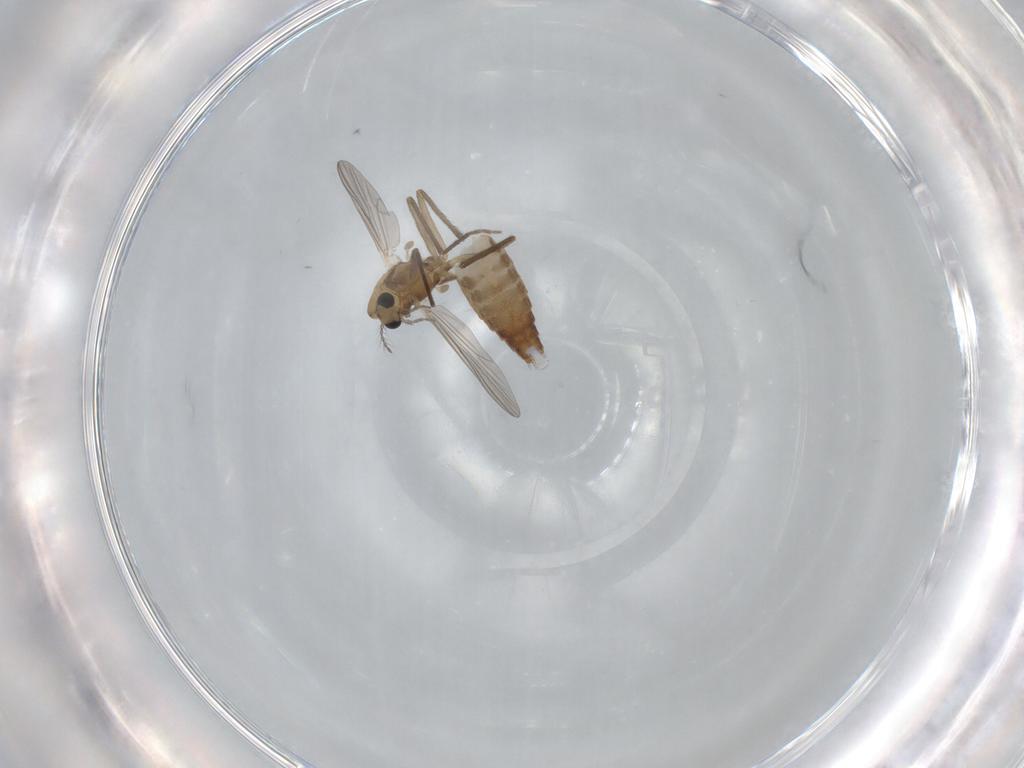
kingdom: Animalia
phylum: Arthropoda
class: Insecta
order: Diptera
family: Chironomidae
